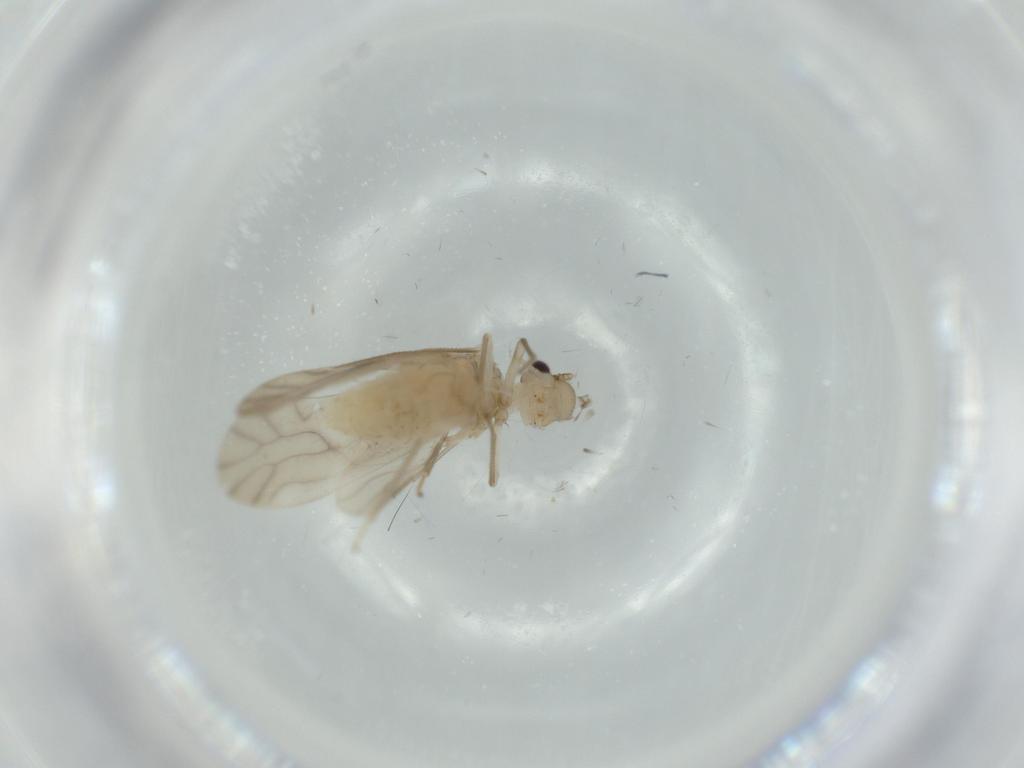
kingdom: Animalia
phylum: Arthropoda
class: Insecta
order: Psocodea
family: Caeciliusidae
